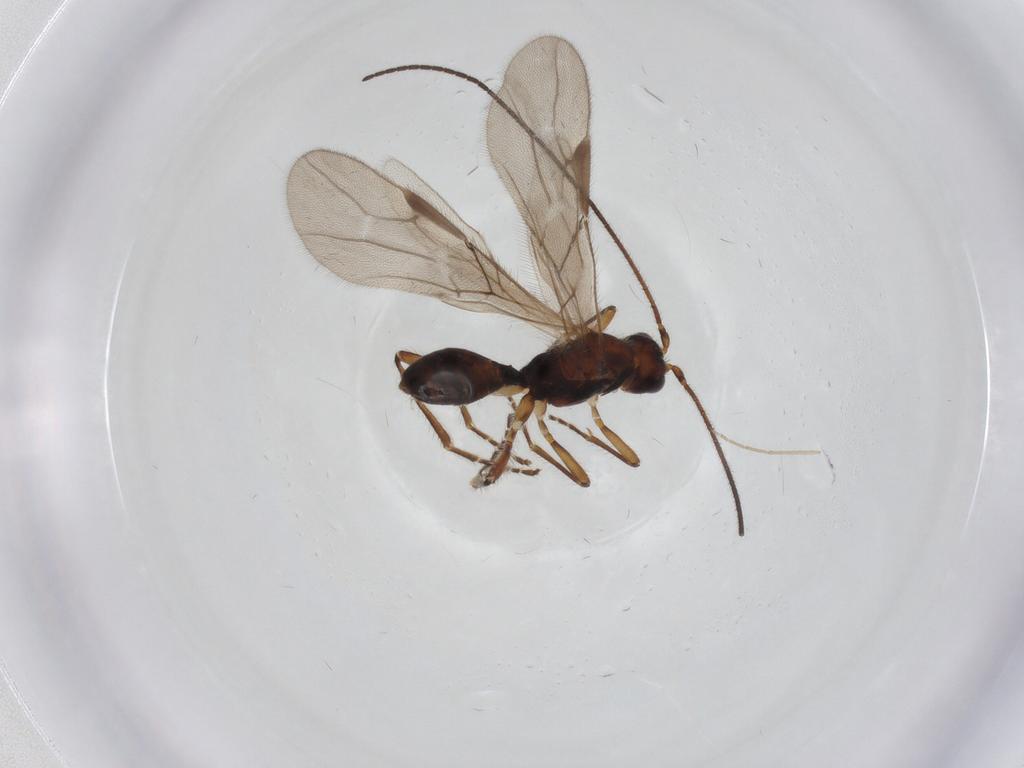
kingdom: Animalia
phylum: Arthropoda
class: Insecta
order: Hymenoptera
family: Braconidae
